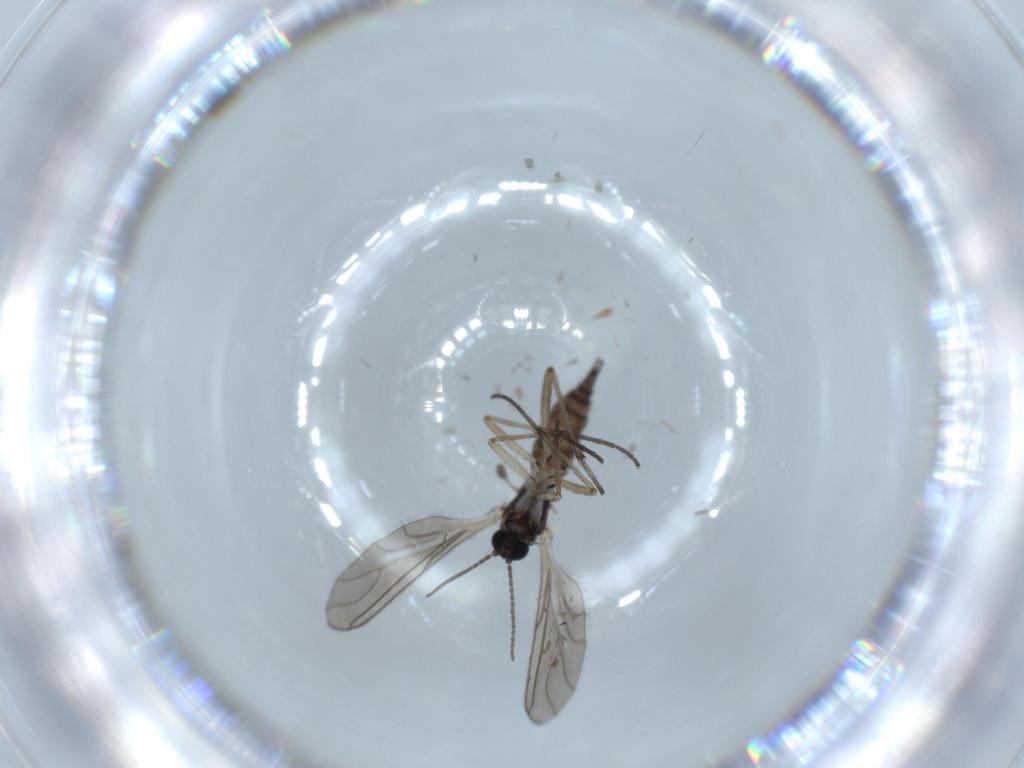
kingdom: Animalia
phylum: Arthropoda
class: Insecta
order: Diptera
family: Sciaridae
